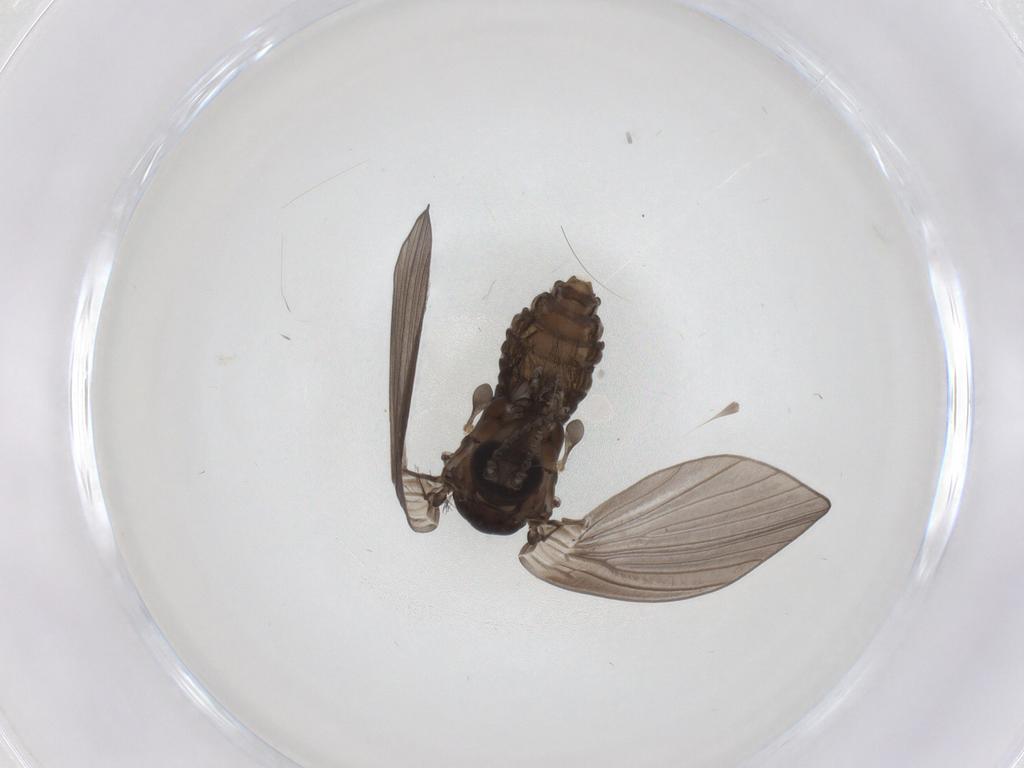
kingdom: Animalia
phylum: Arthropoda
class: Insecta
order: Diptera
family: Psychodidae
